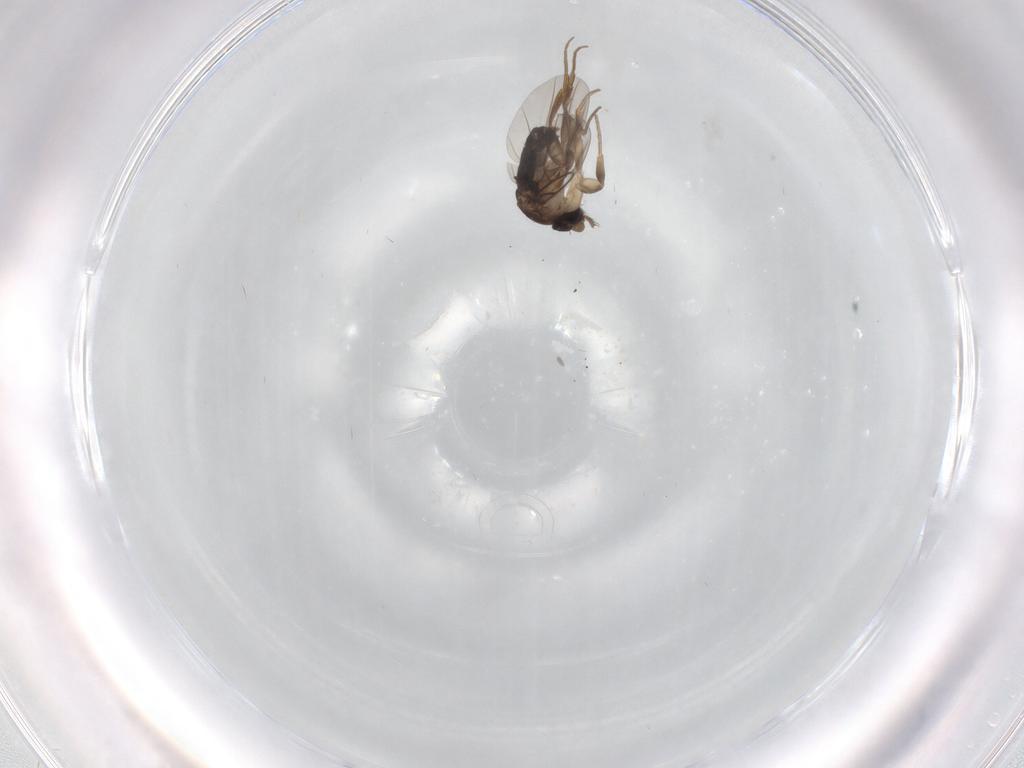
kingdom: Animalia
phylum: Arthropoda
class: Insecta
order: Diptera
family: Phoridae
